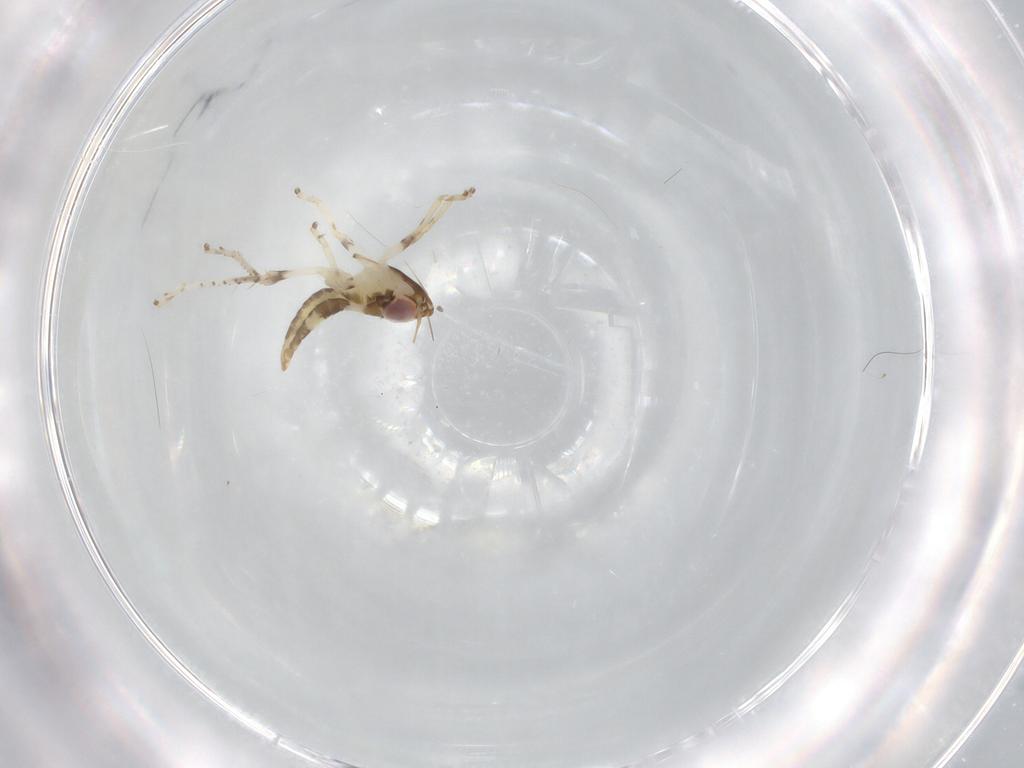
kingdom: Animalia
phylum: Arthropoda
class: Insecta
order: Hemiptera
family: Cicadellidae
